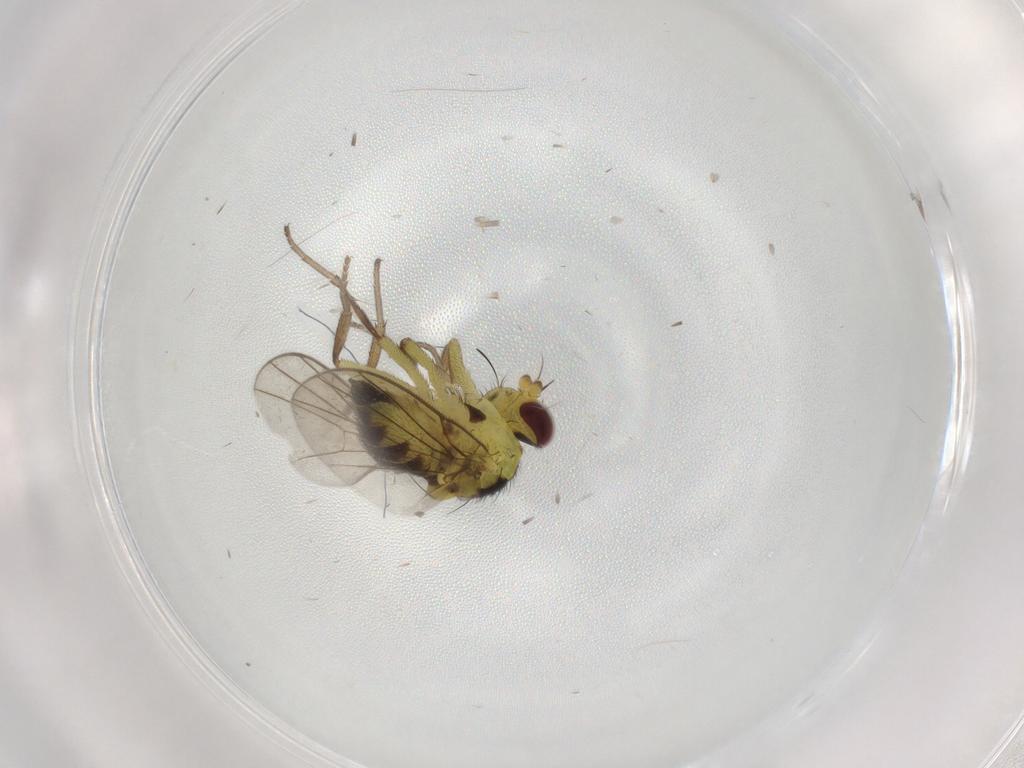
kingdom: Animalia
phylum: Arthropoda
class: Insecta
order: Diptera
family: Agromyzidae
